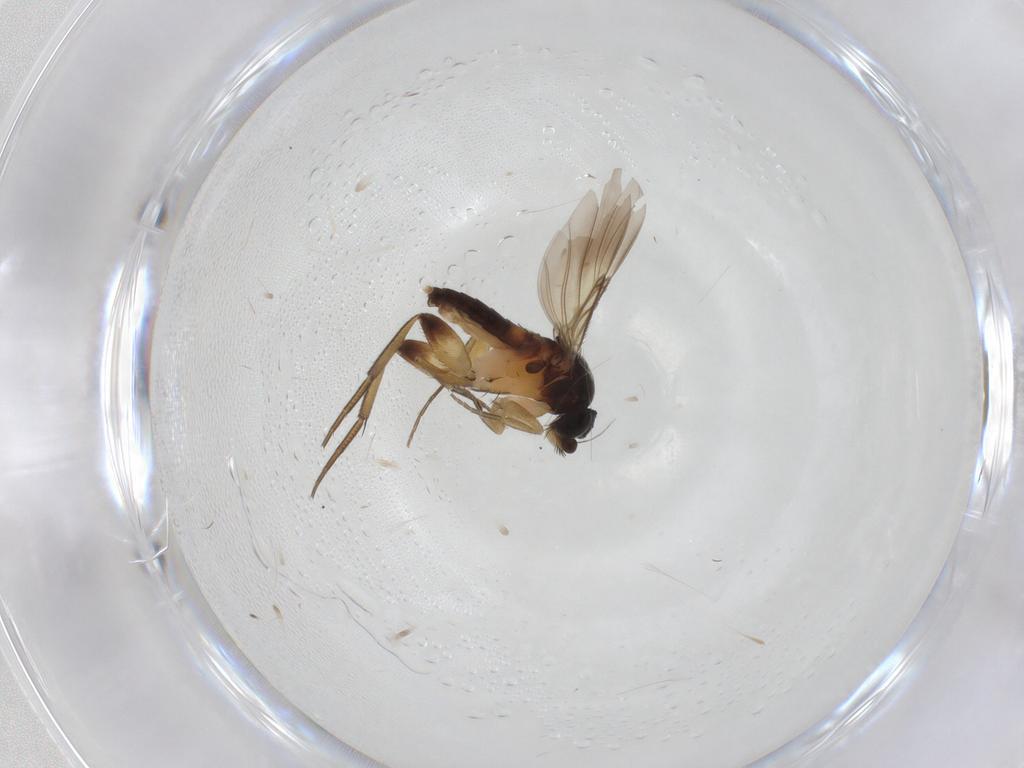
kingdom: Animalia
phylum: Arthropoda
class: Insecta
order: Diptera
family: Phoridae
